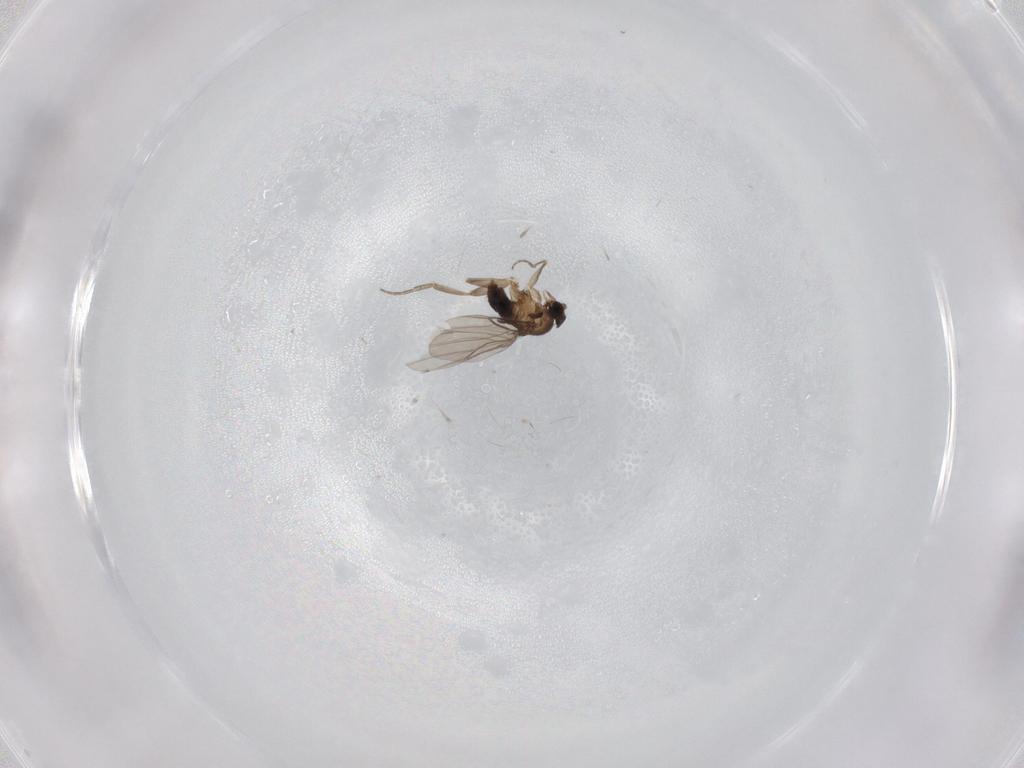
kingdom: Animalia
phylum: Arthropoda
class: Insecta
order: Diptera
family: Phoridae
